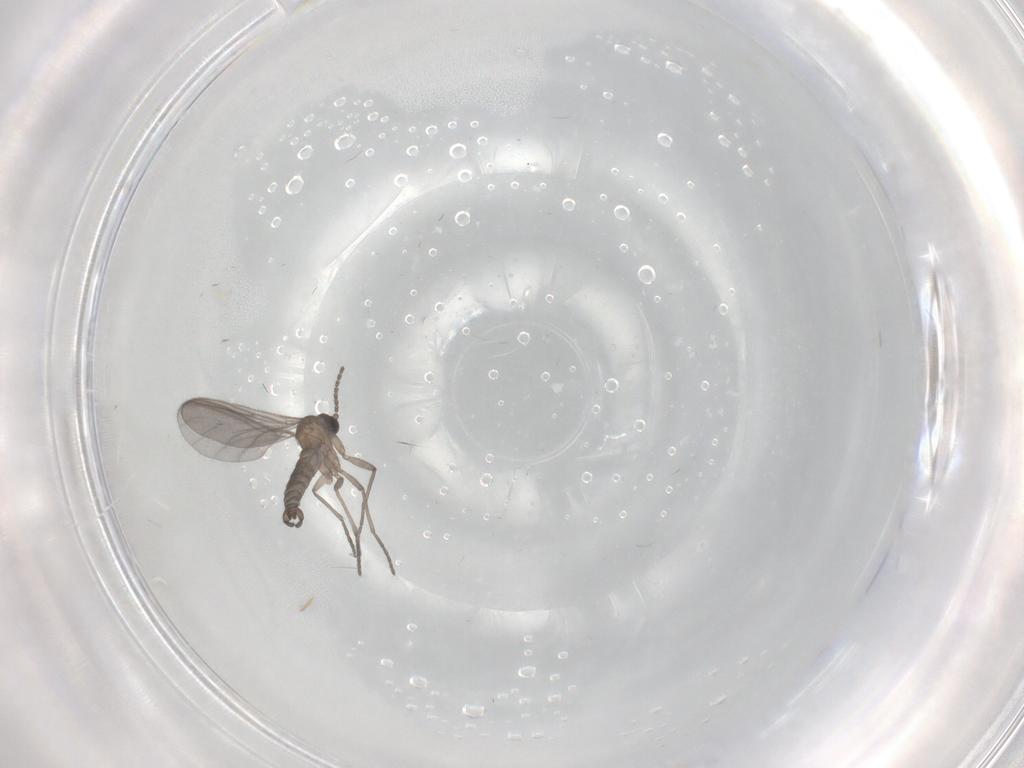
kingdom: Animalia
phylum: Arthropoda
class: Insecta
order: Diptera
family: Sciaridae
